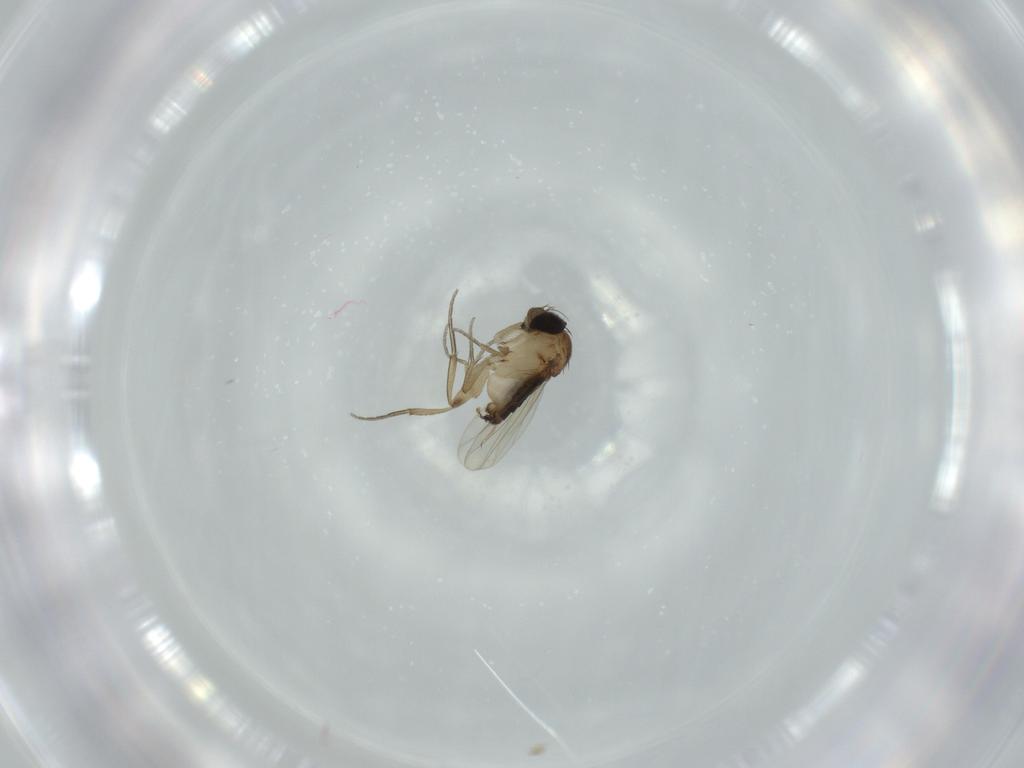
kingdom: Animalia
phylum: Arthropoda
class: Insecta
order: Diptera
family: Phoridae
